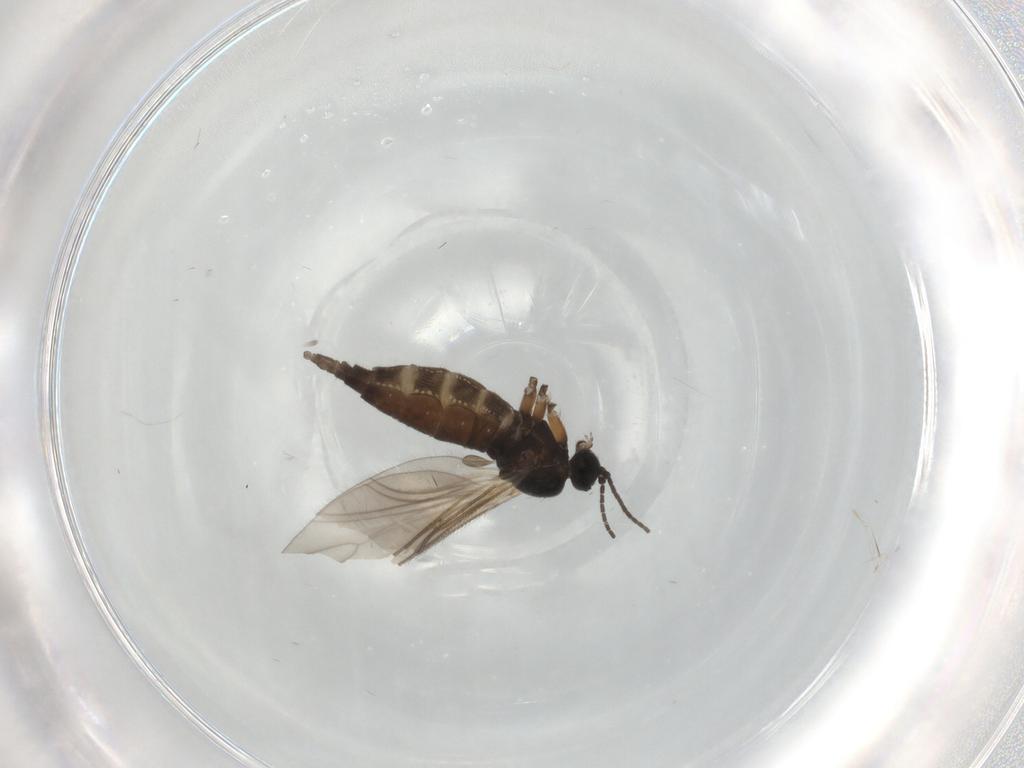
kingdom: Animalia
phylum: Arthropoda
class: Insecta
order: Diptera
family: Sciaridae
